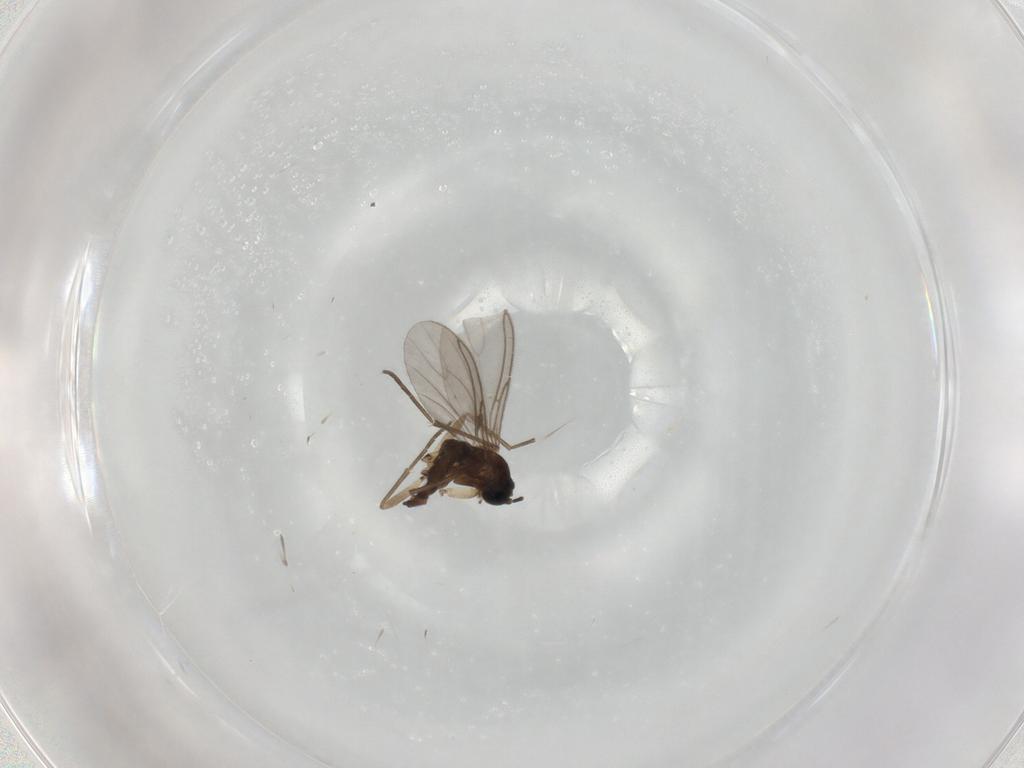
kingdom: Animalia
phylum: Arthropoda
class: Insecta
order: Diptera
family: Sciaridae
